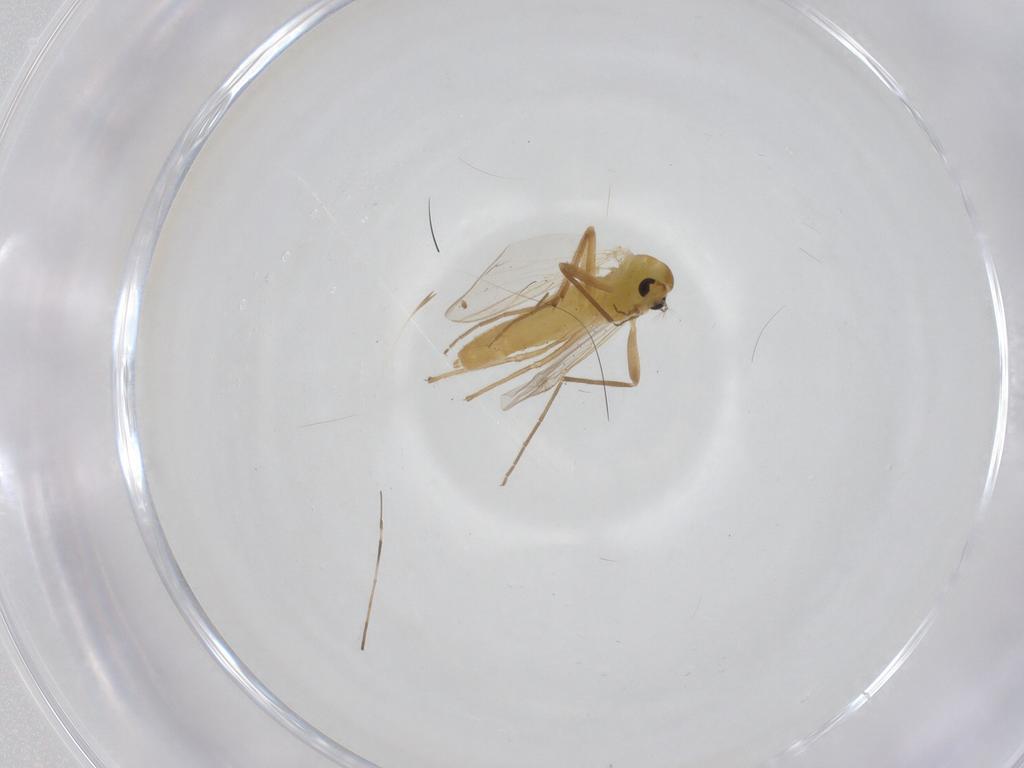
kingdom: Animalia
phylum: Arthropoda
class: Insecta
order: Diptera
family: Chironomidae
